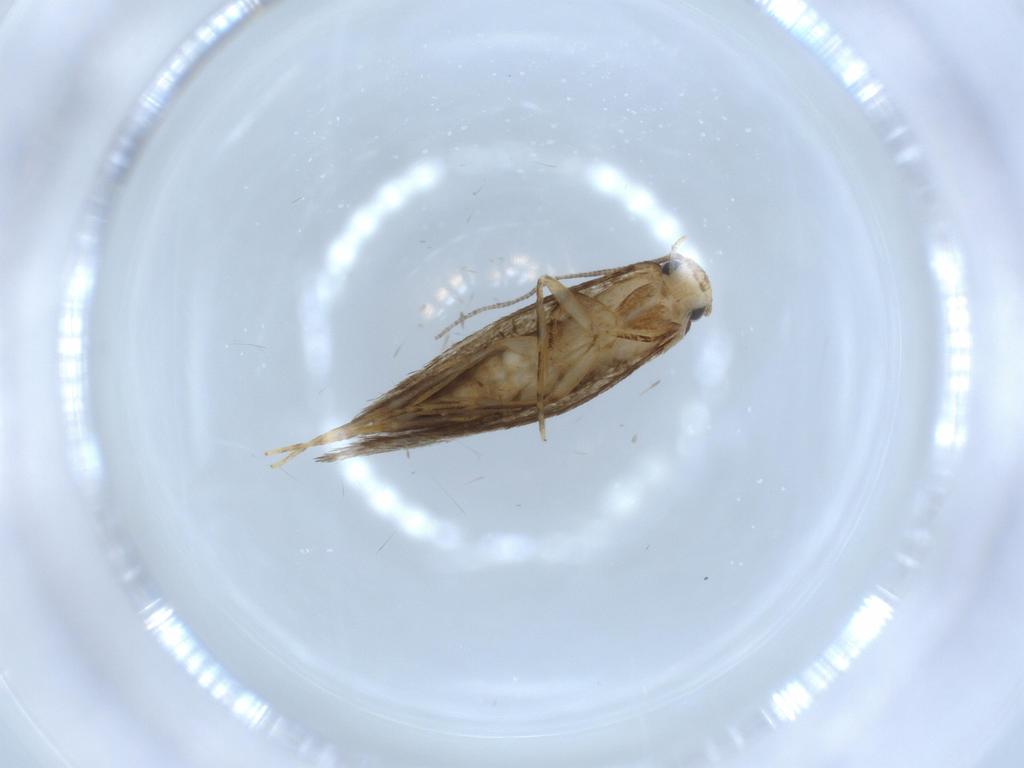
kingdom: Animalia
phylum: Arthropoda
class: Insecta
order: Lepidoptera
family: Tineidae
